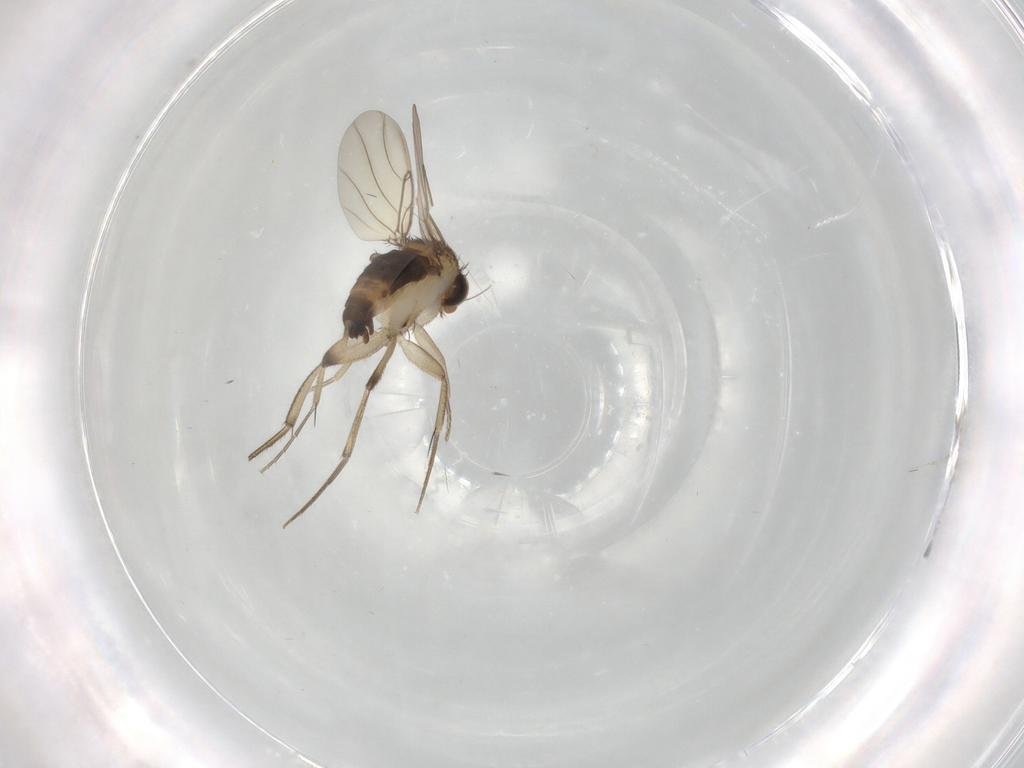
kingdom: Animalia
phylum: Arthropoda
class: Insecta
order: Diptera
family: Phoridae
